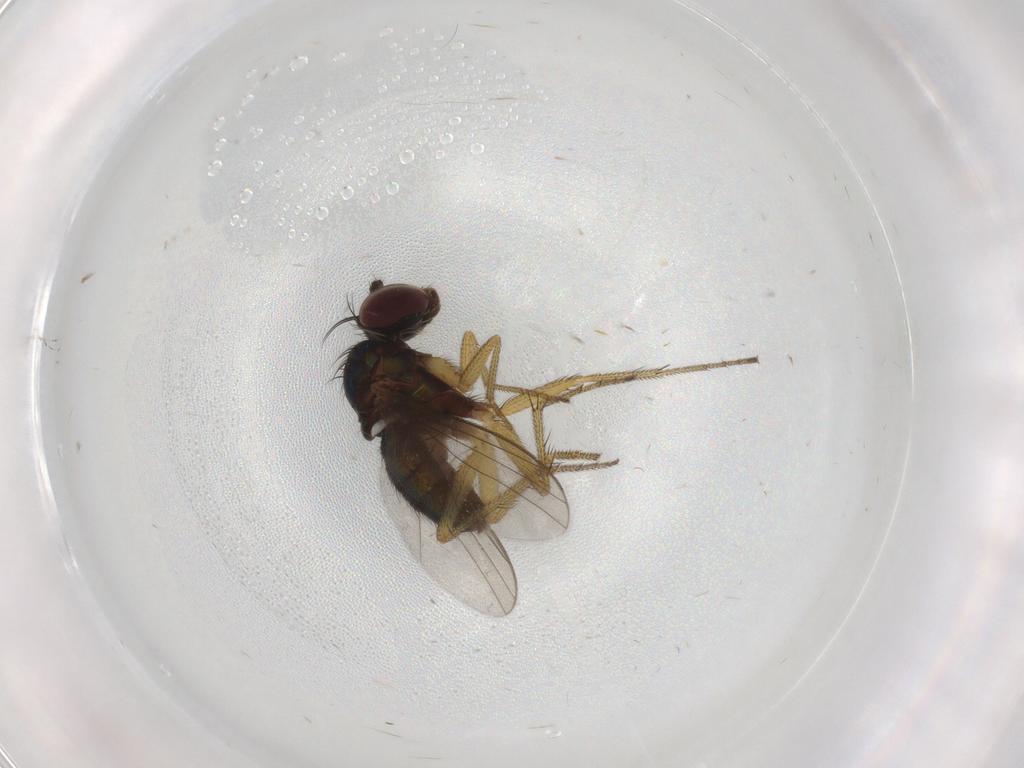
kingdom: Animalia
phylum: Arthropoda
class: Insecta
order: Diptera
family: Dolichopodidae
